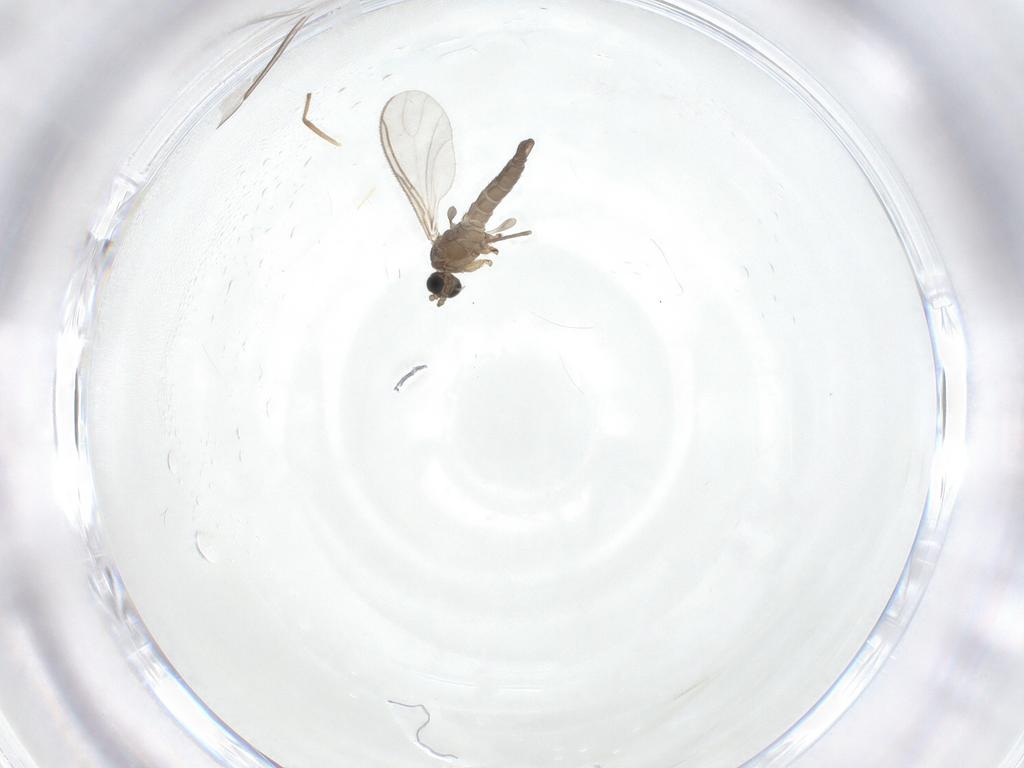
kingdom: Animalia
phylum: Arthropoda
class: Insecta
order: Diptera
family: Sciaridae
